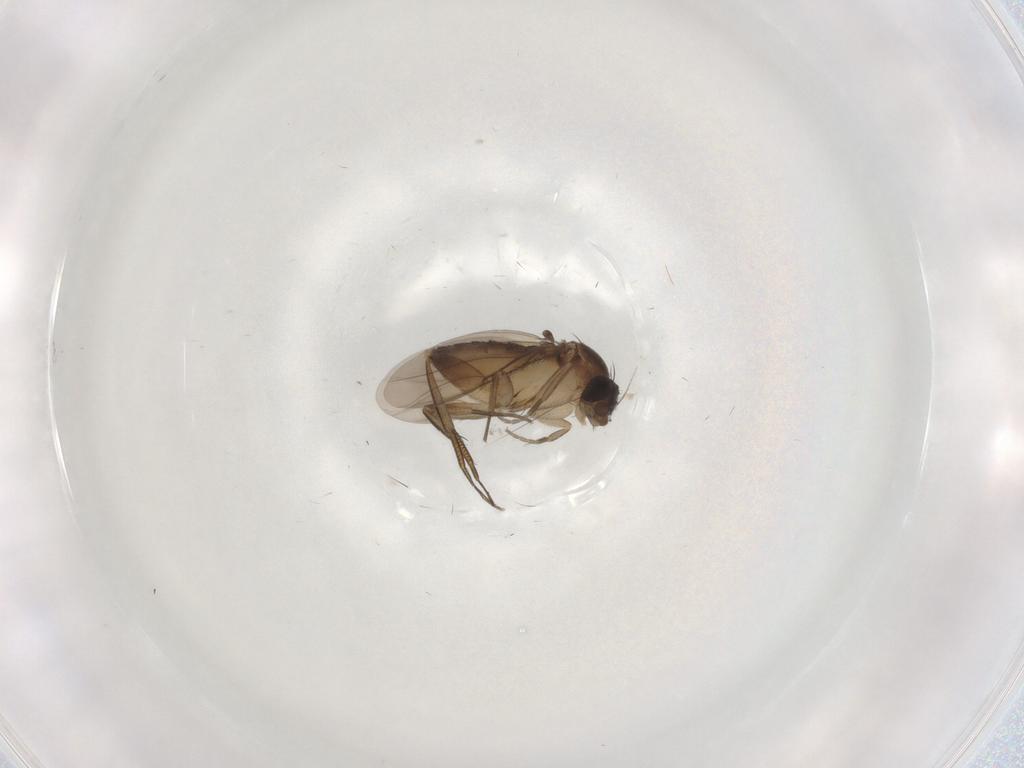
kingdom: Animalia
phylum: Arthropoda
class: Insecta
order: Diptera
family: Phoridae
